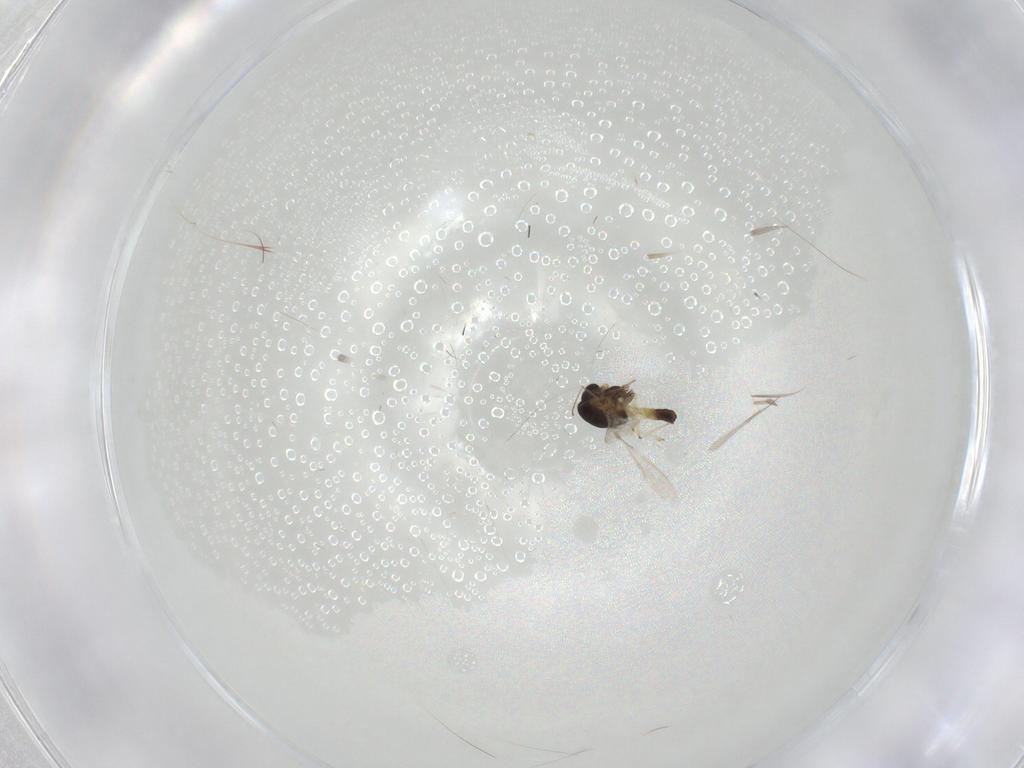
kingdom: Animalia
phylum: Arthropoda
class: Insecta
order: Diptera
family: Chironomidae
